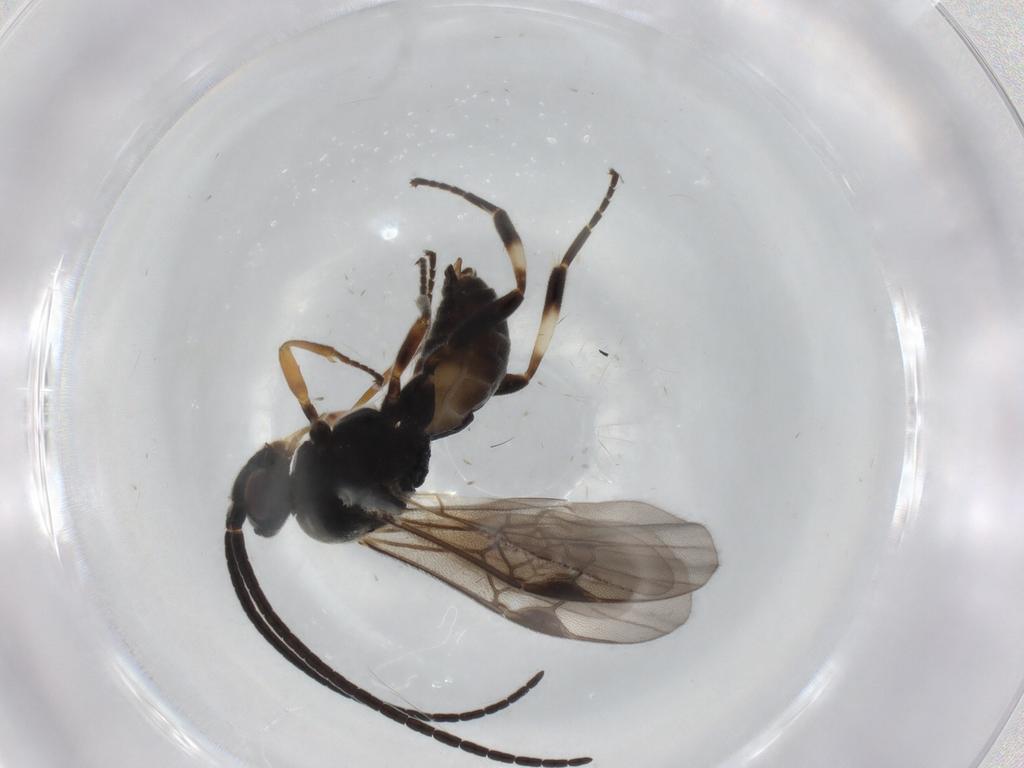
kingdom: Animalia
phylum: Arthropoda
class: Insecta
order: Hymenoptera
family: Braconidae
